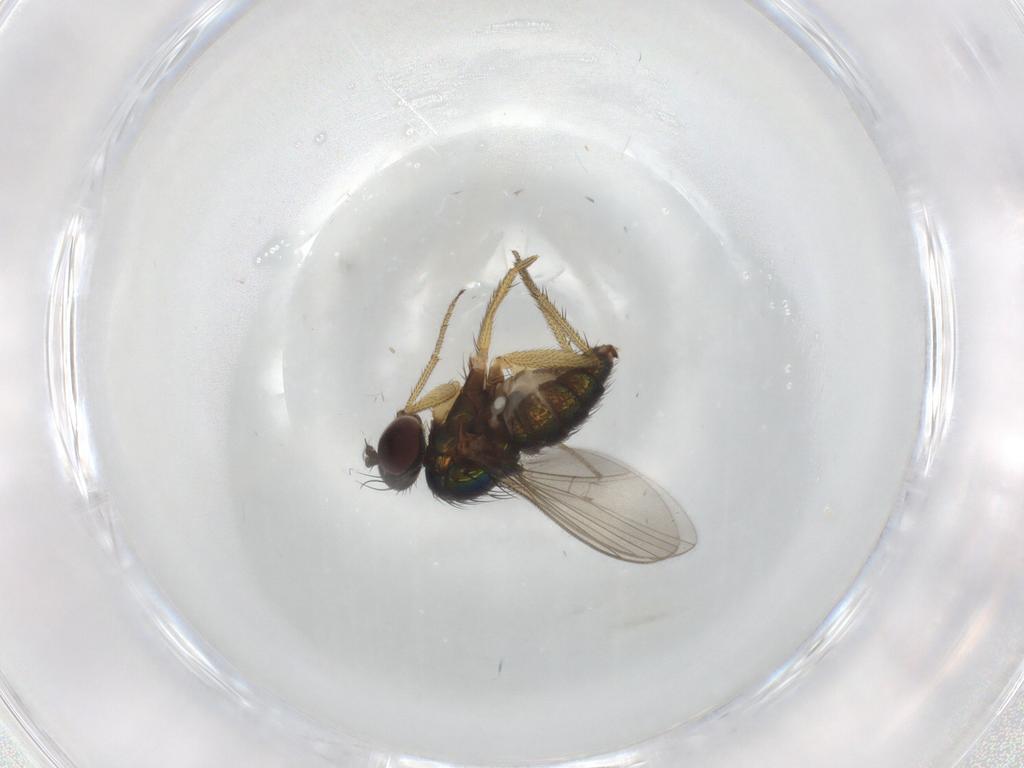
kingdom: Animalia
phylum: Arthropoda
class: Insecta
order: Diptera
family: Dolichopodidae
